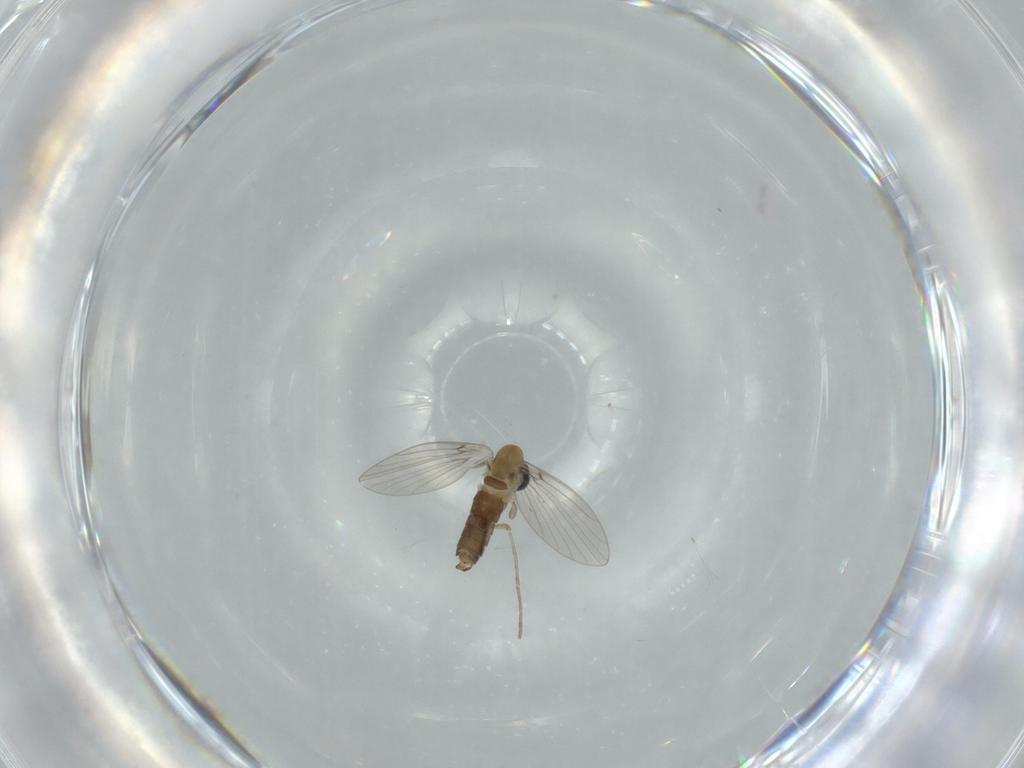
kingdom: Animalia
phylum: Arthropoda
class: Insecta
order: Diptera
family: Psychodidae
